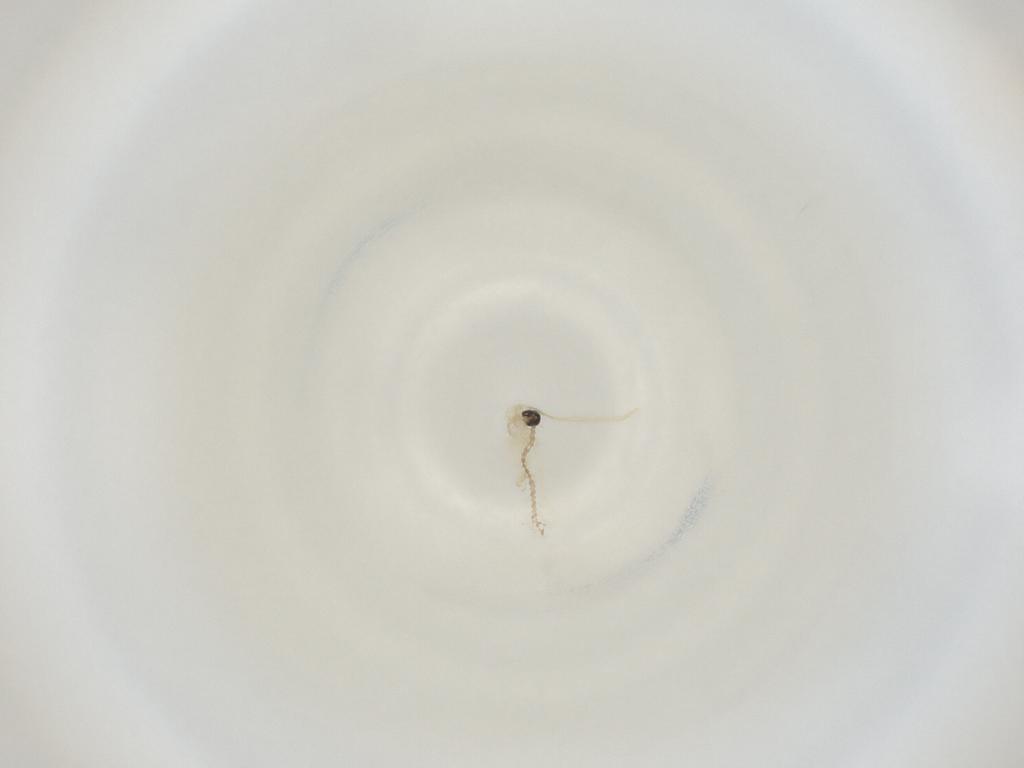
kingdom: Animalia
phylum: Arthropoda
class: Insecta
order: Diptera
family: Cecidomyiidae
